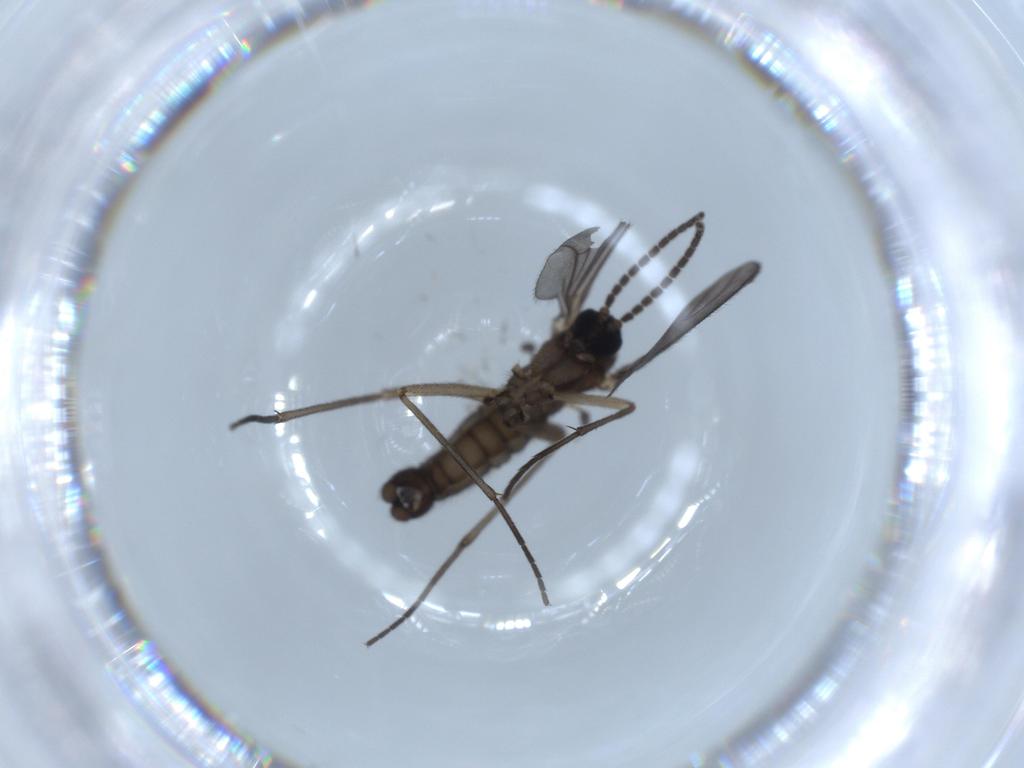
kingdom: Animalia
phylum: Arthropoda
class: Insecta
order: Diptera
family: Sciaridae
